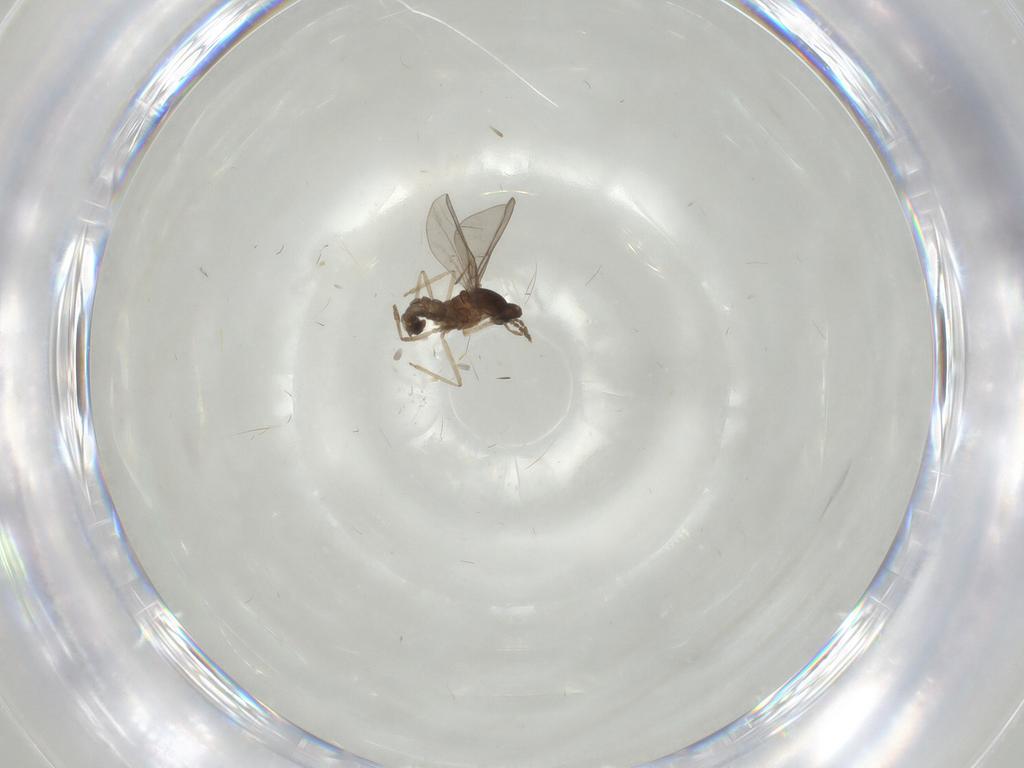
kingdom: Animalia
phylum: Arthropoda
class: Insecta
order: Diptera
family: Cecidomyiidae
